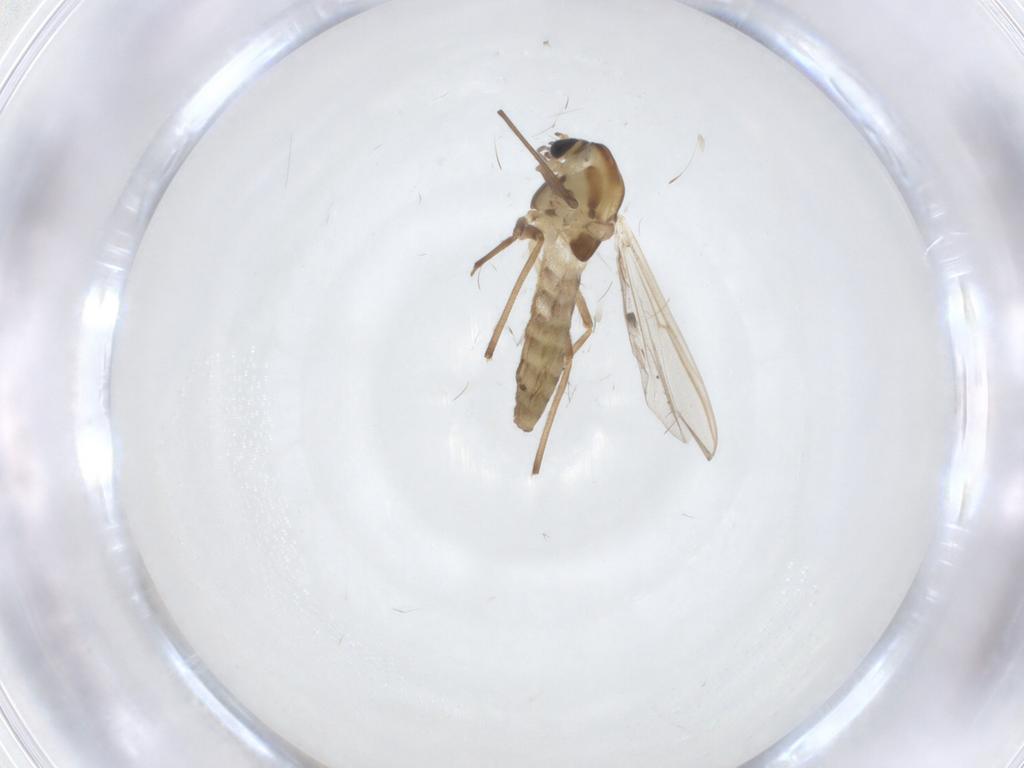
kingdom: Animalia
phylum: Arthropoda
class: Insecta
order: Diptera
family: Chironomidae
